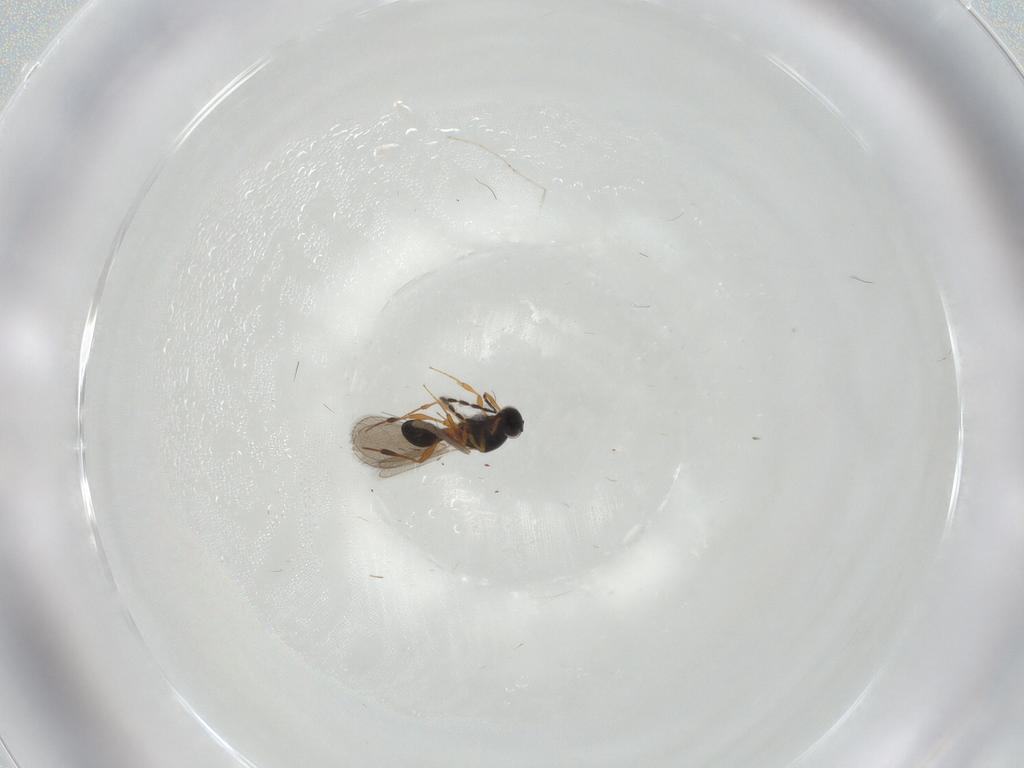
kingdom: Animalia
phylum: Arthropoda
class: Insecta
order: Hymenoptera
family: Platygastridae
